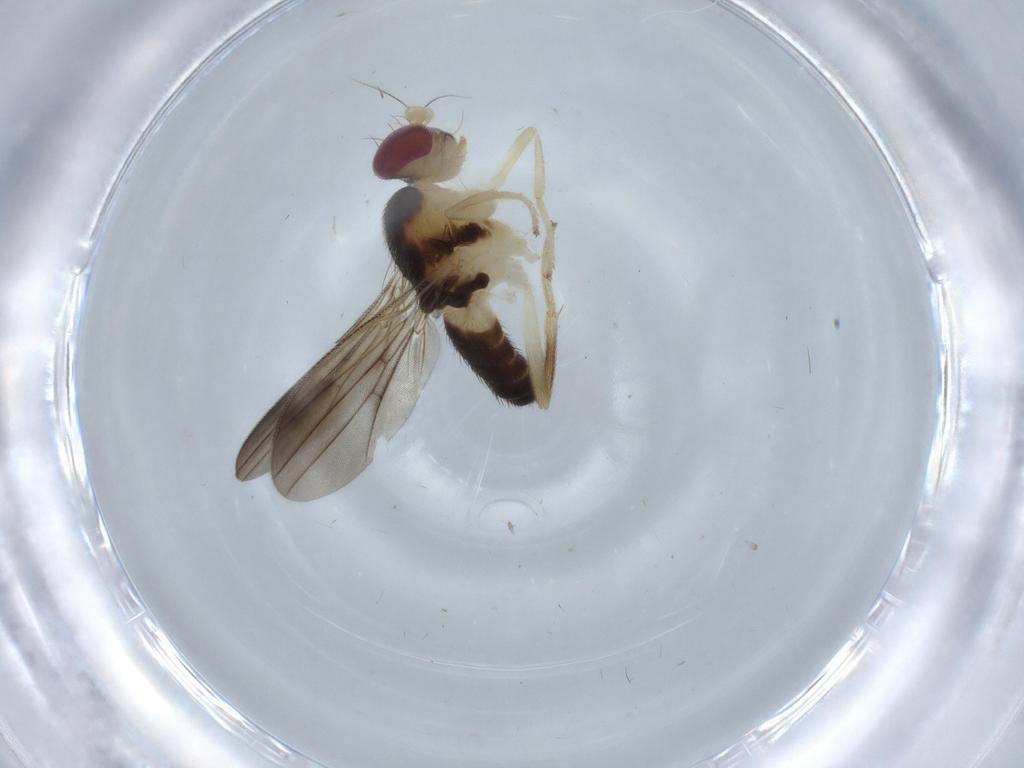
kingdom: Animalia
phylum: Arthropoda
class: Insecta
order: Diptera
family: Clusiidae
